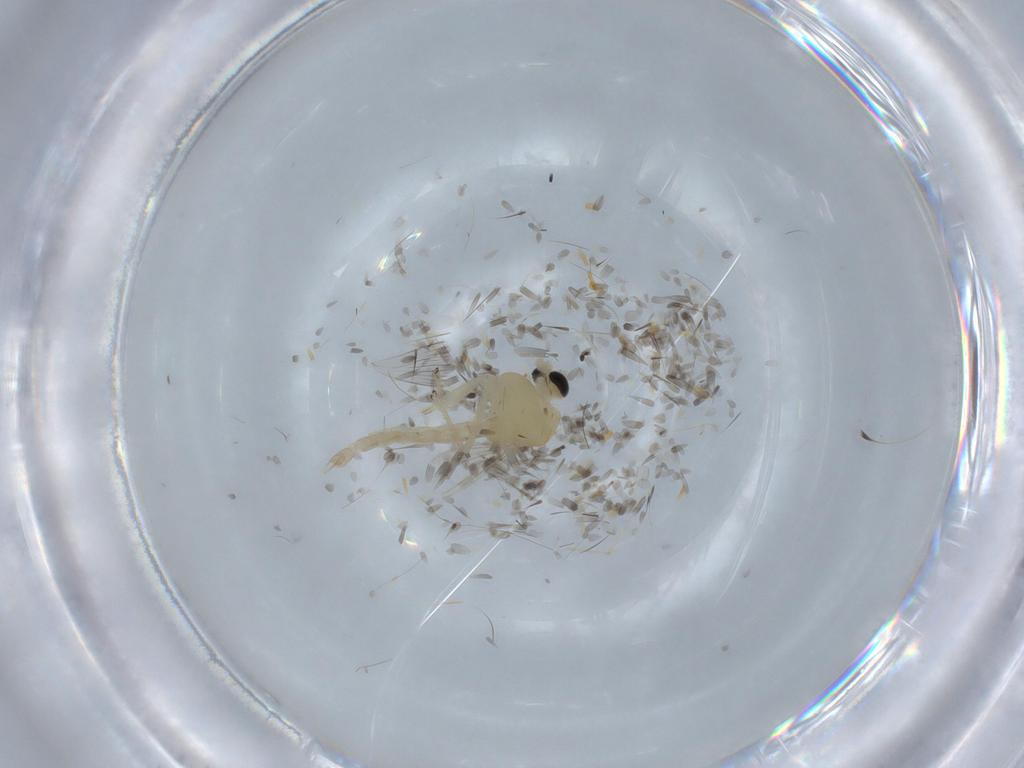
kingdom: Animalia
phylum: Arthropoda
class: Insecta
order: Diptera
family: Chironomidae
